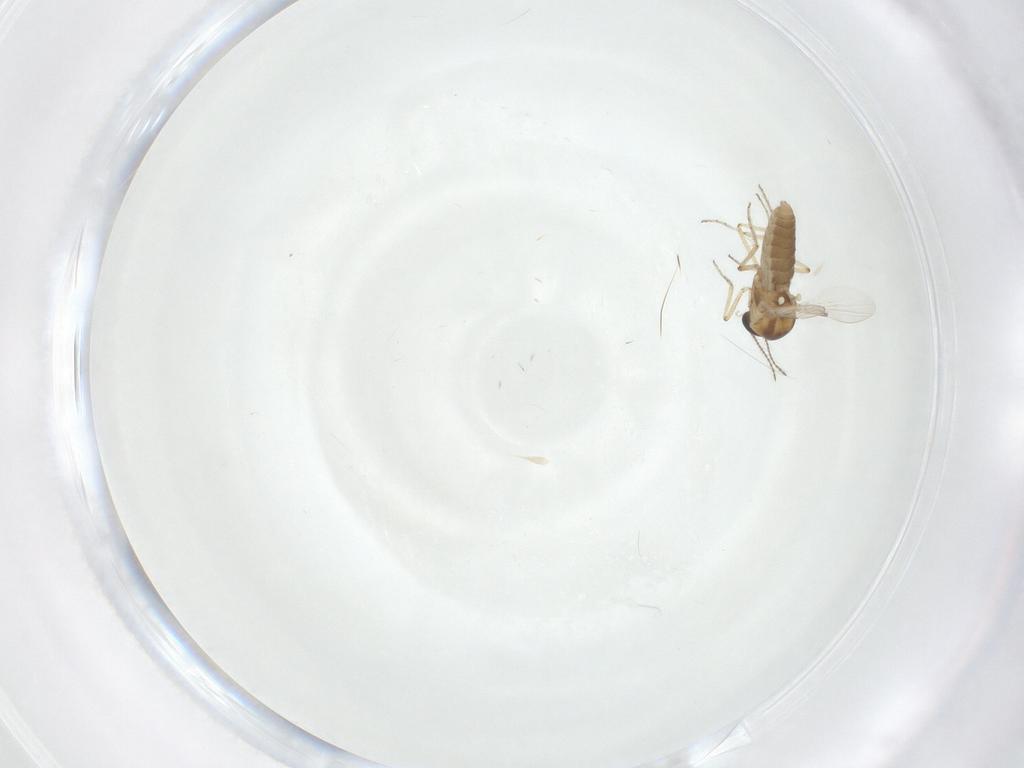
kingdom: Animalia
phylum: Arthropoda
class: Insecta
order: Diptera
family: Ceratopogonidae
